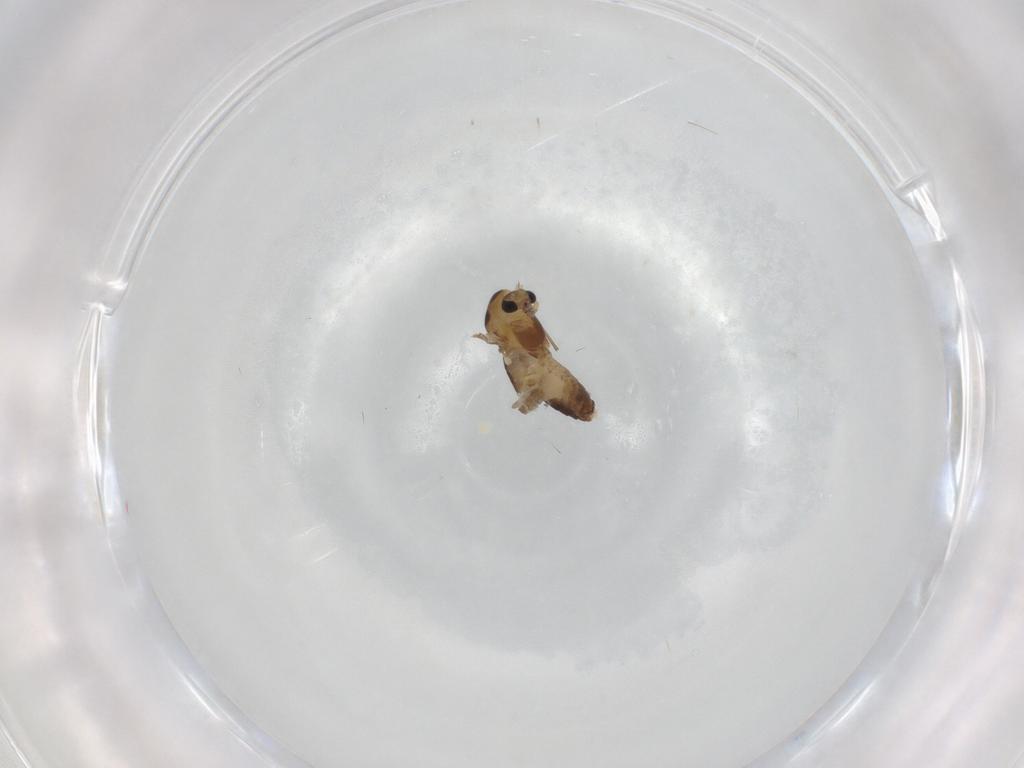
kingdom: Animalia
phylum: Arthropoda
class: Insecta
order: Diptera
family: Chironomidae
